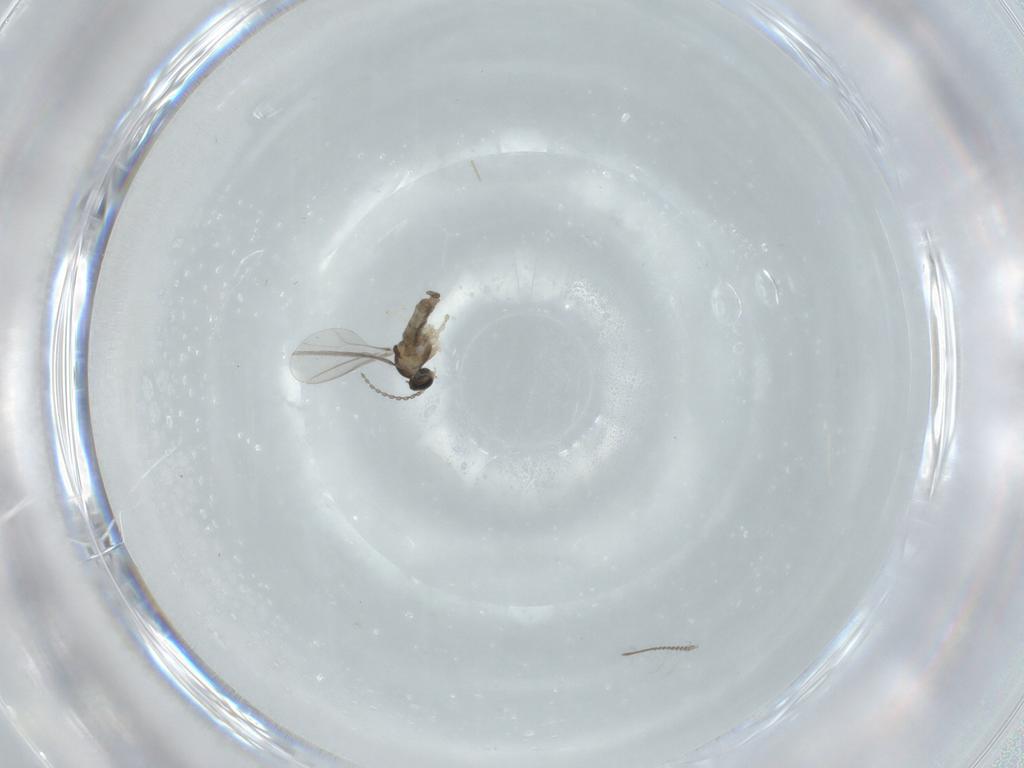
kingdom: Animalia
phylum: Arthropoda
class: Insecta
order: Diptera
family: Cecidomyiidae
